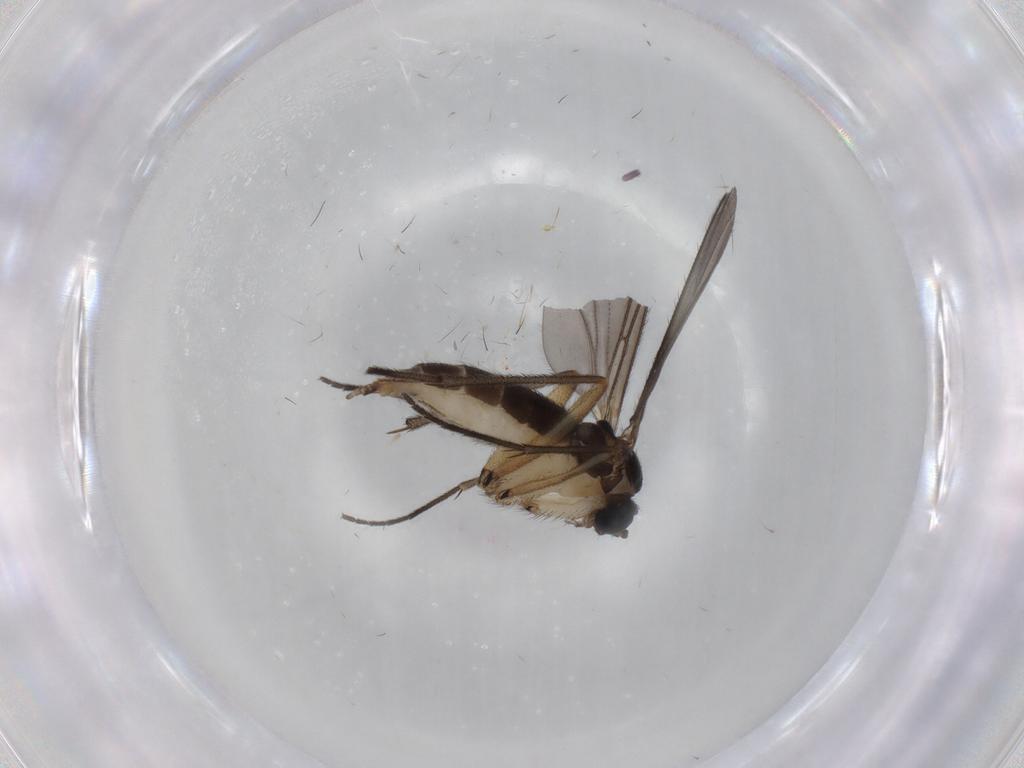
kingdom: Animalia
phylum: Arthropoda
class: Insecta
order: Diptera
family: Sciaridae
